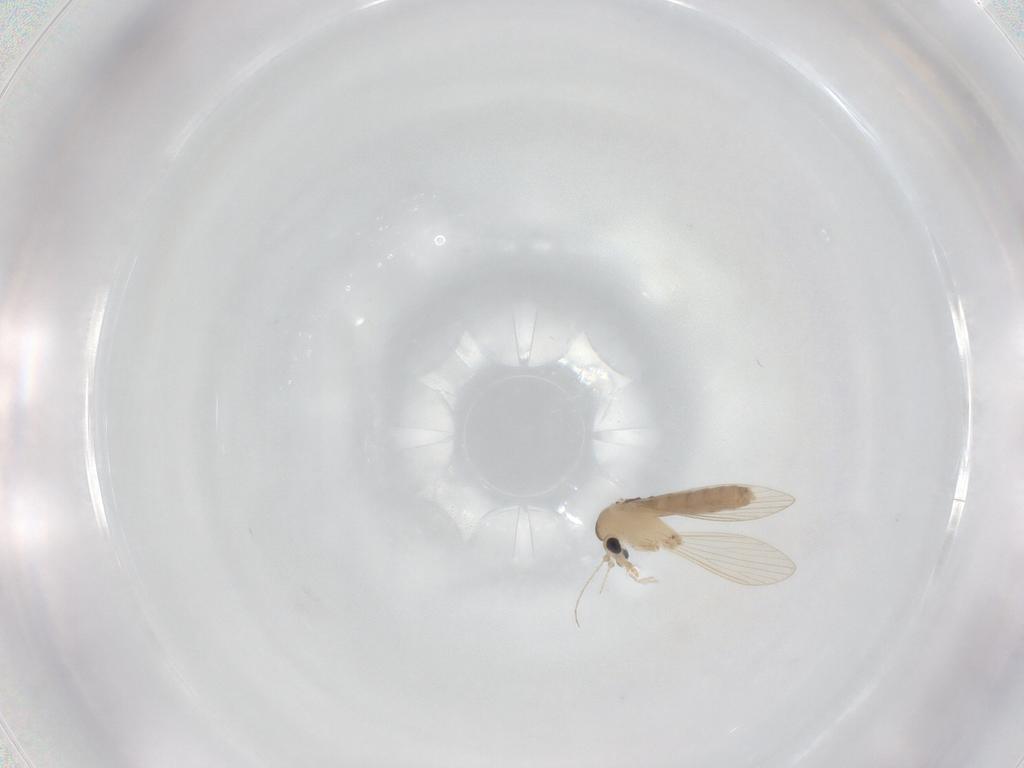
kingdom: Animalia
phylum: Arthropoda
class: Insecta
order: Diptera
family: Psychodidae
